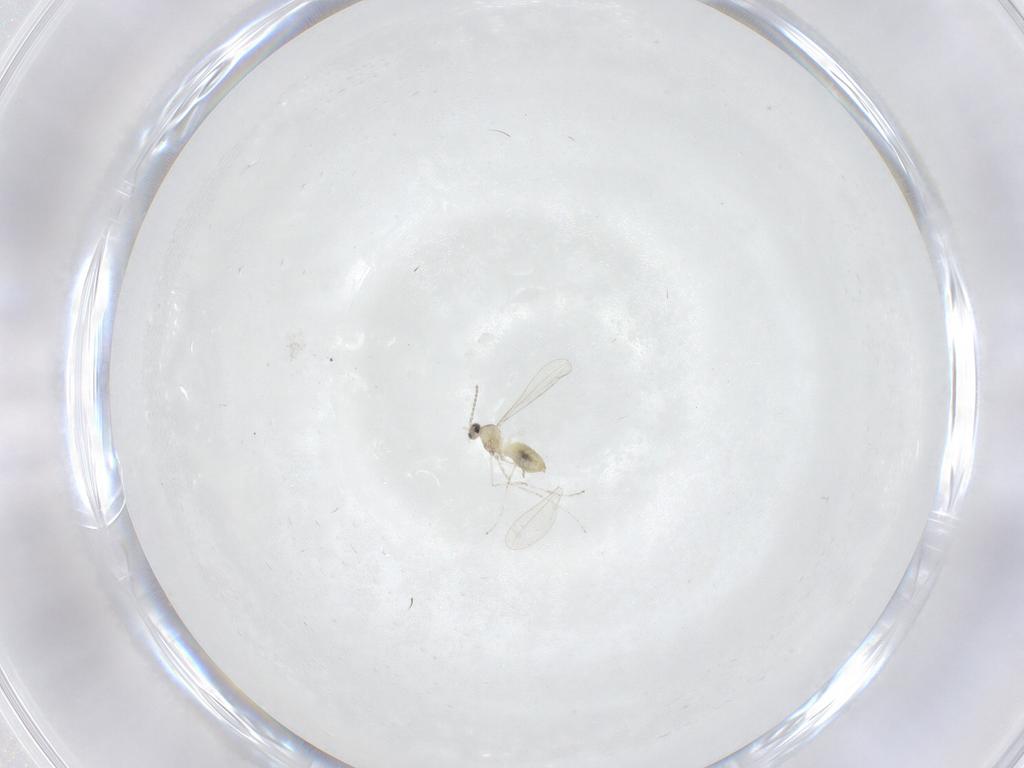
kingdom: Animalia
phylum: Arthropoda
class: Insecta
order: Diptera
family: Cecidomyiidae
